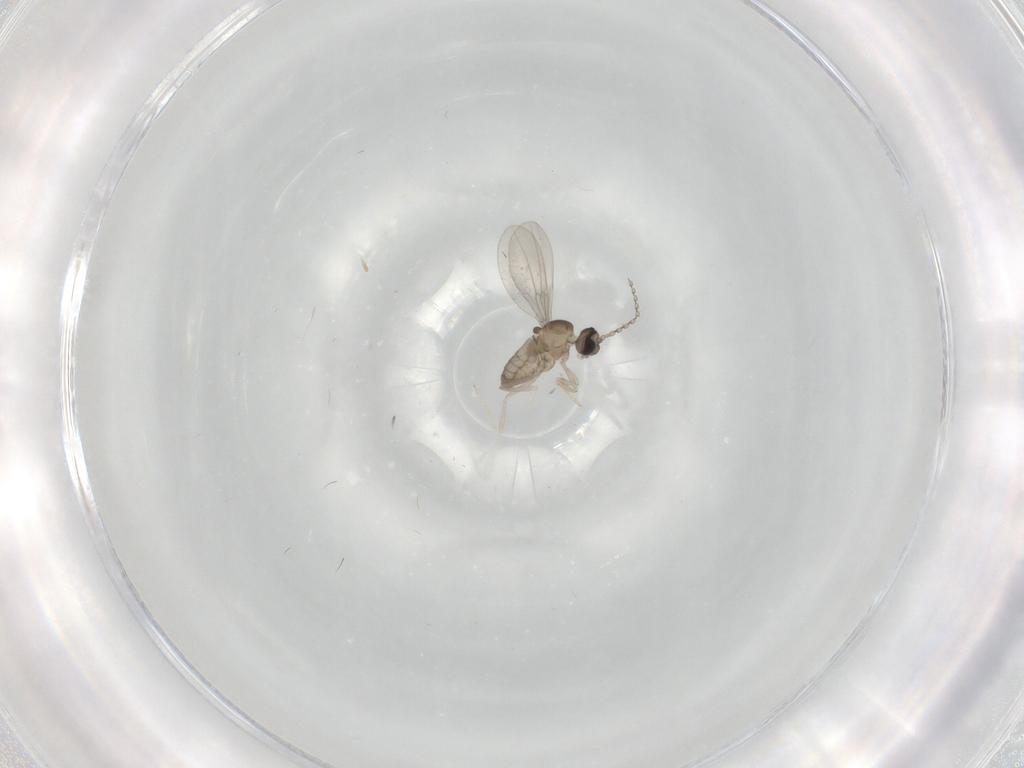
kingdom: Animalia
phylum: Arthropoda
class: Insecta
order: Diptera
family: Cecidomyiidae
